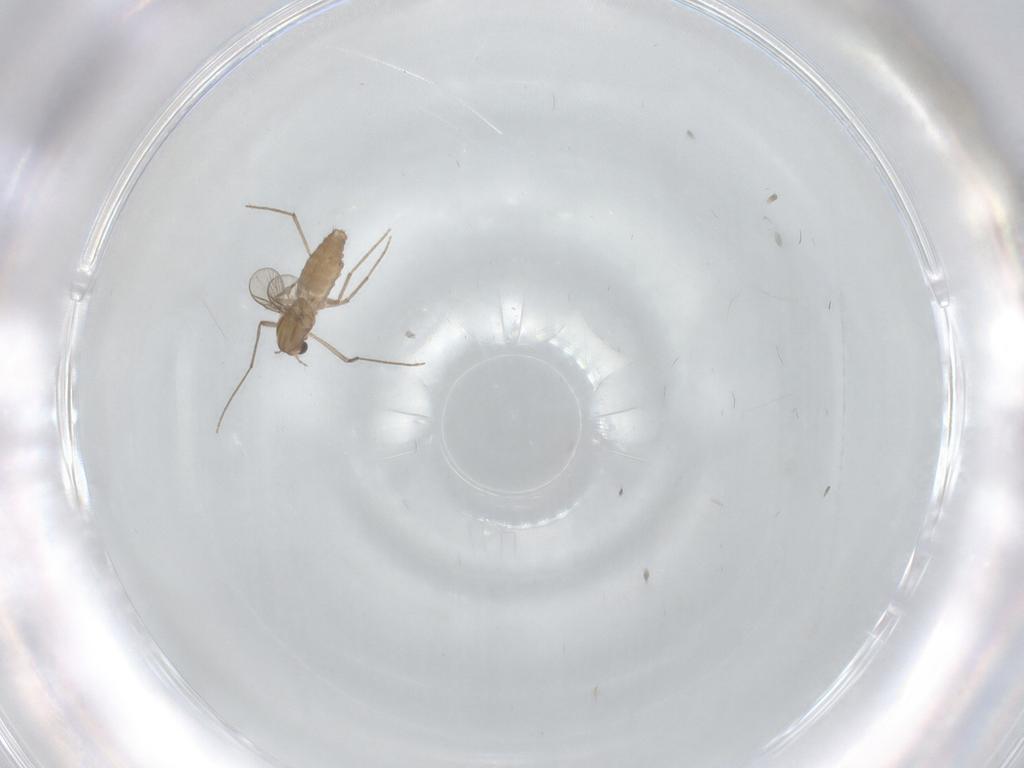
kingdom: Animalia
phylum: Arthropoda
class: Insecta
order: Diptera
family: Chironomidae
